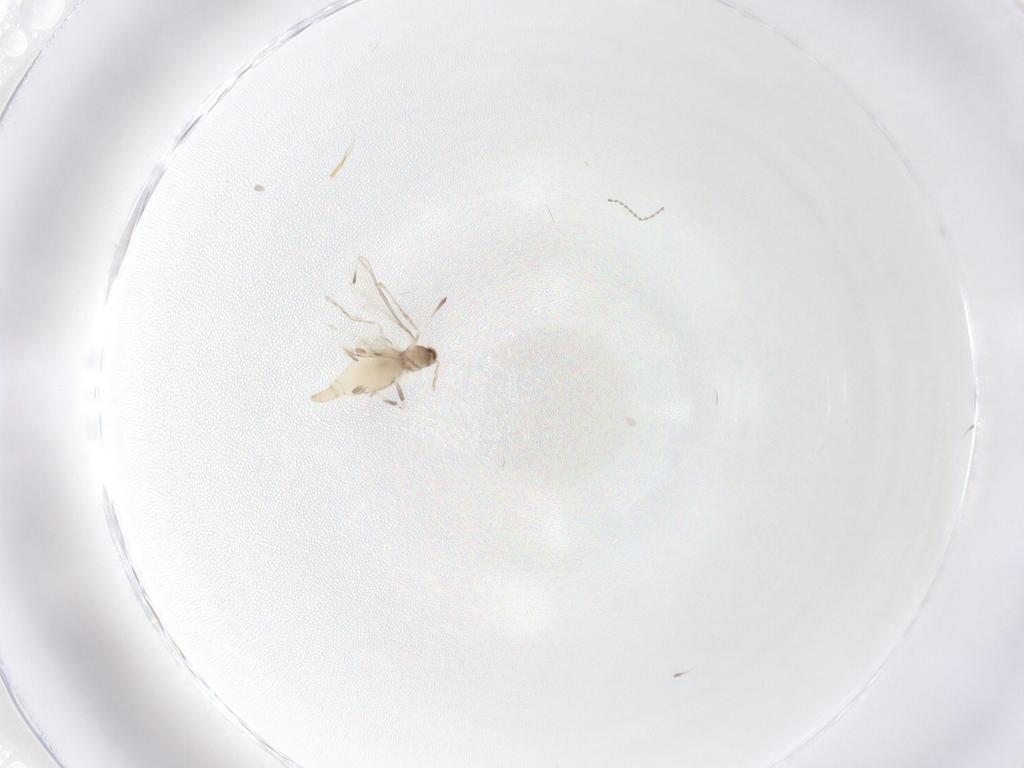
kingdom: Animalia
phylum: Arthropoda
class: Insecta
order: Diptera
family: Cecidomyiidae
